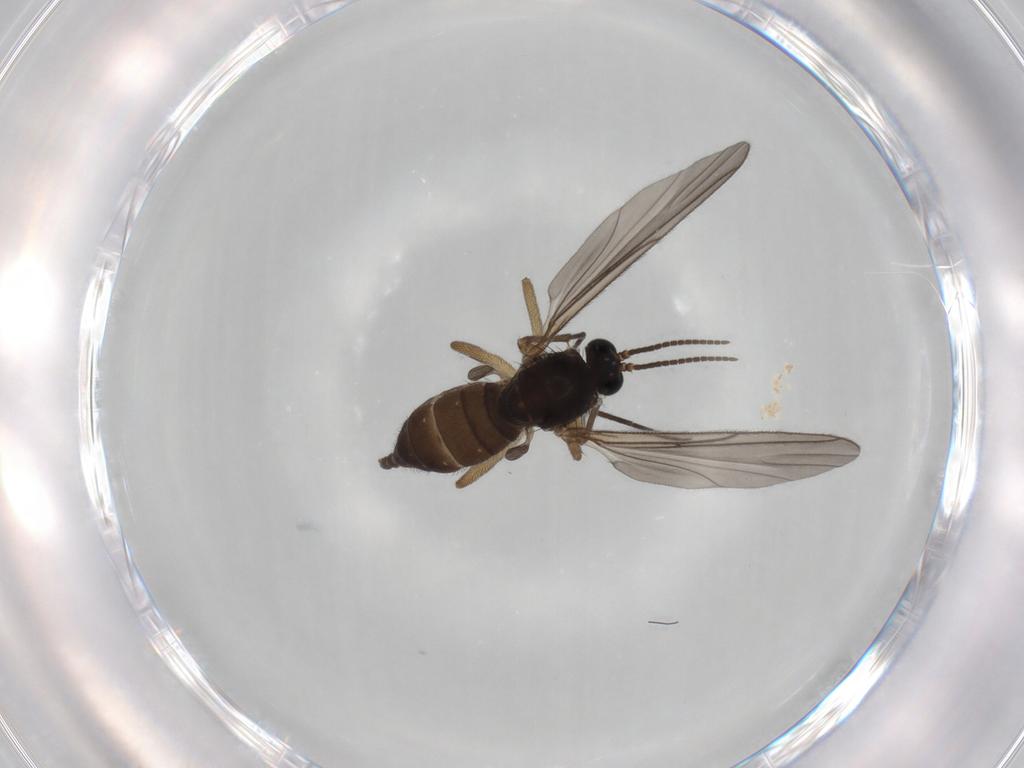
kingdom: Animalia
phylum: Arthropoda
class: Insecta
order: Diptera
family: Sciaridae
